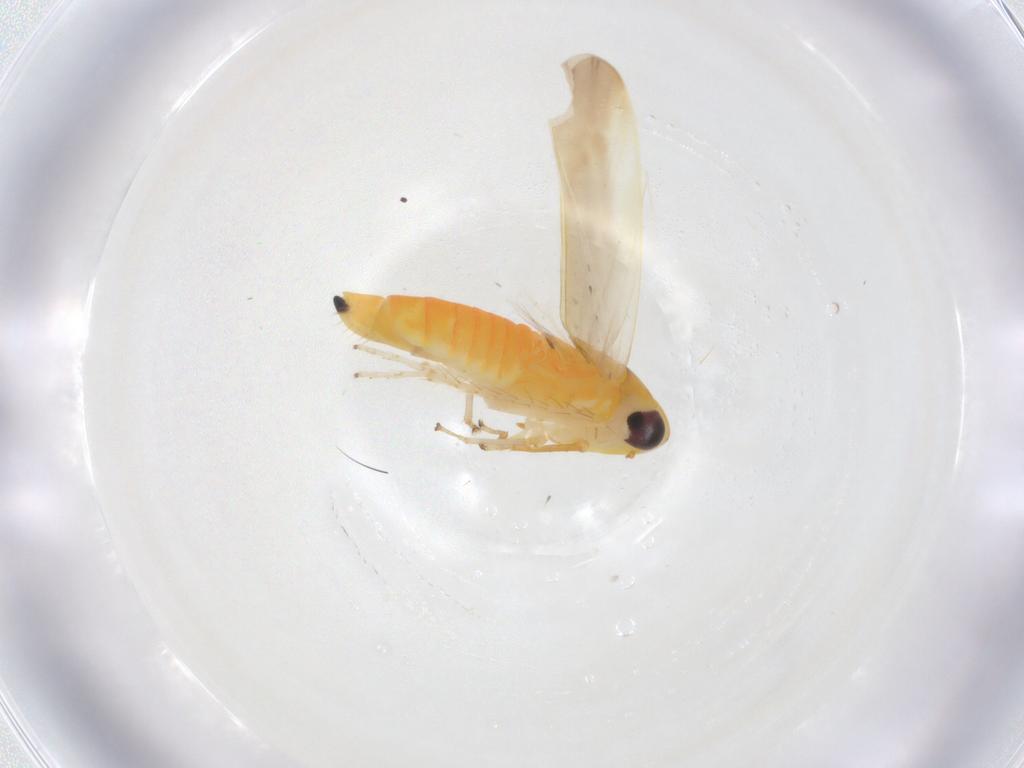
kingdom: Animalia
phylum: Arthropoda
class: Insecta
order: Hemiptera
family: Cicadellidae
